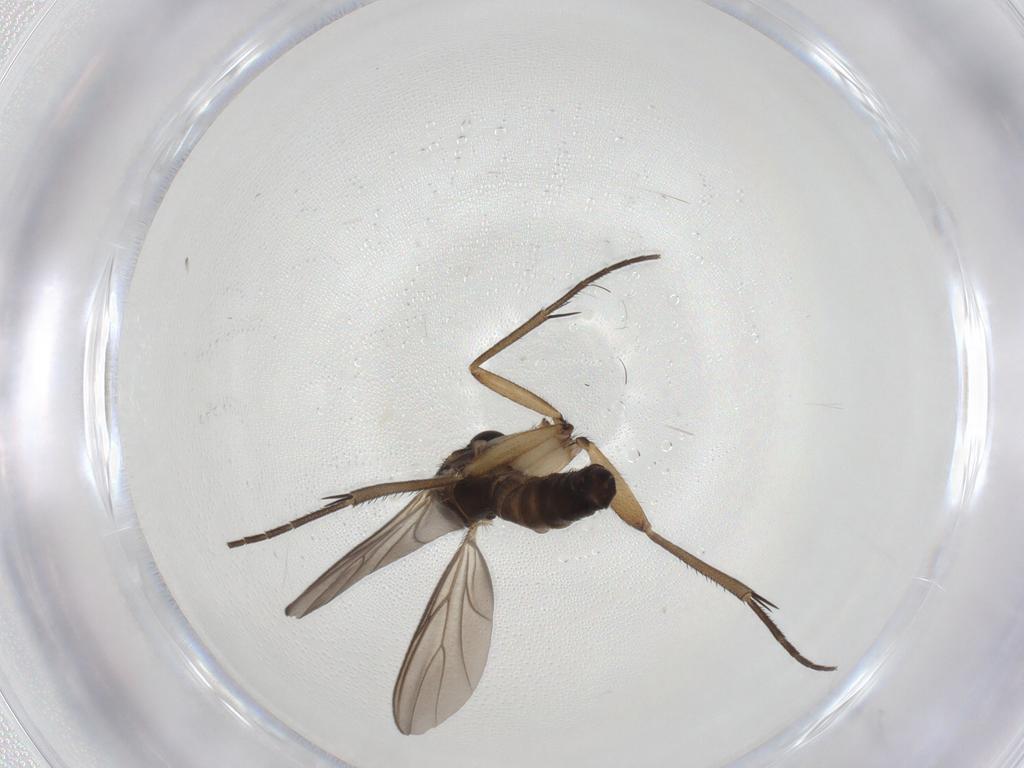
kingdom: Animalia
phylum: Arthropoda
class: Insecta
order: Diptera
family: Mycetophilidae
